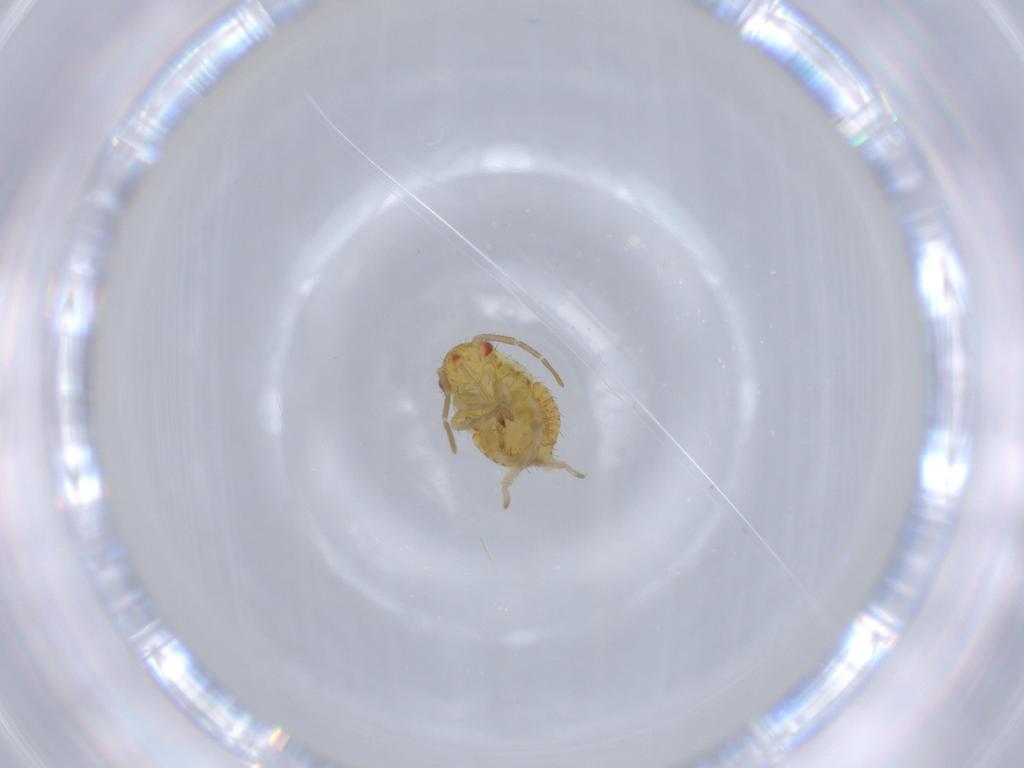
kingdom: Animalia
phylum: Arthropoda
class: Insecta
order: Hemiptera
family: Miridae
